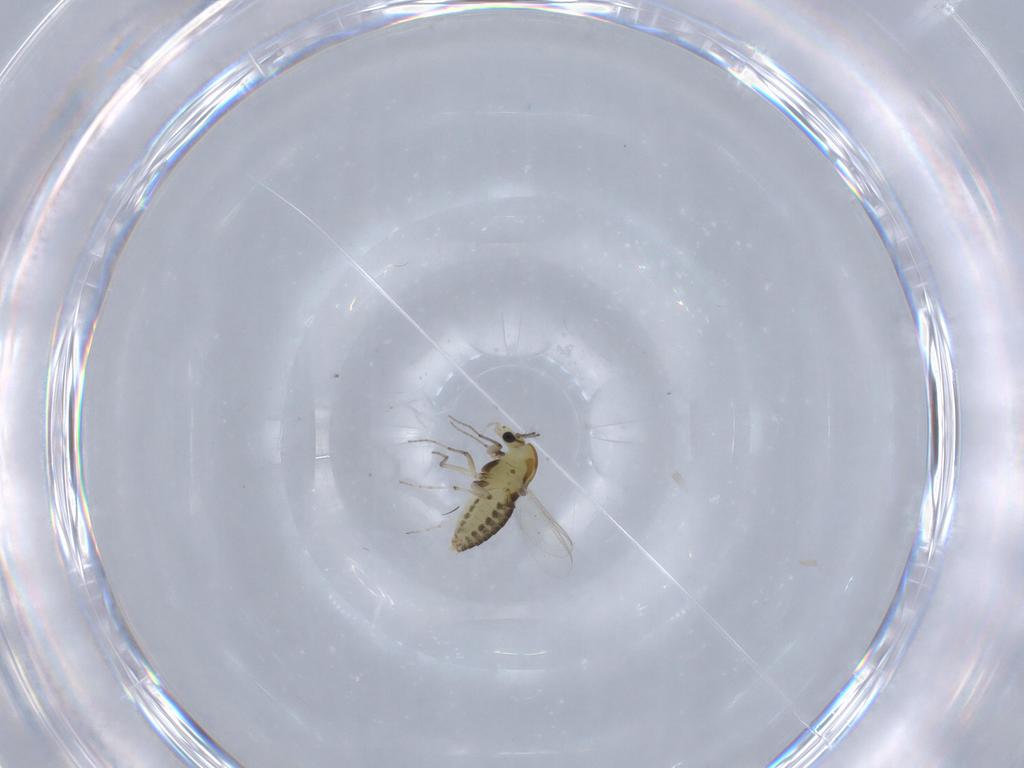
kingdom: Animalia
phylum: Arthropoda
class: Insecta
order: Diptera
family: Chironomidae
